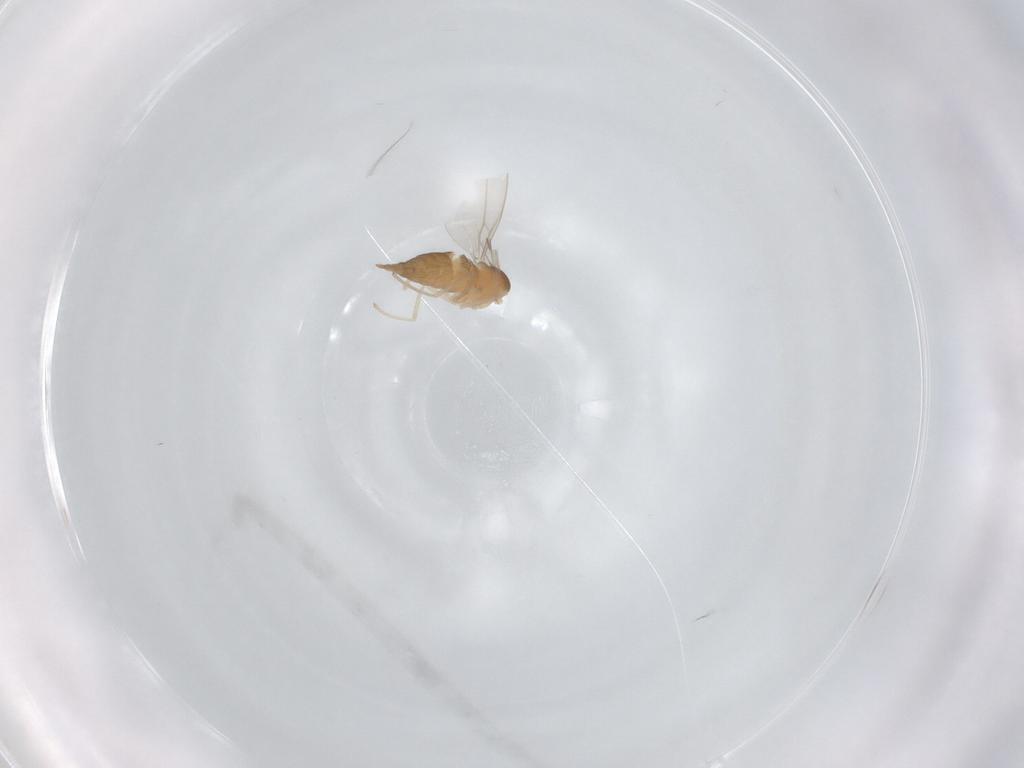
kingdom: Animalia
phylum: Arthropoda
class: Insecta
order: Diptera
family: Cecidomyiidae
